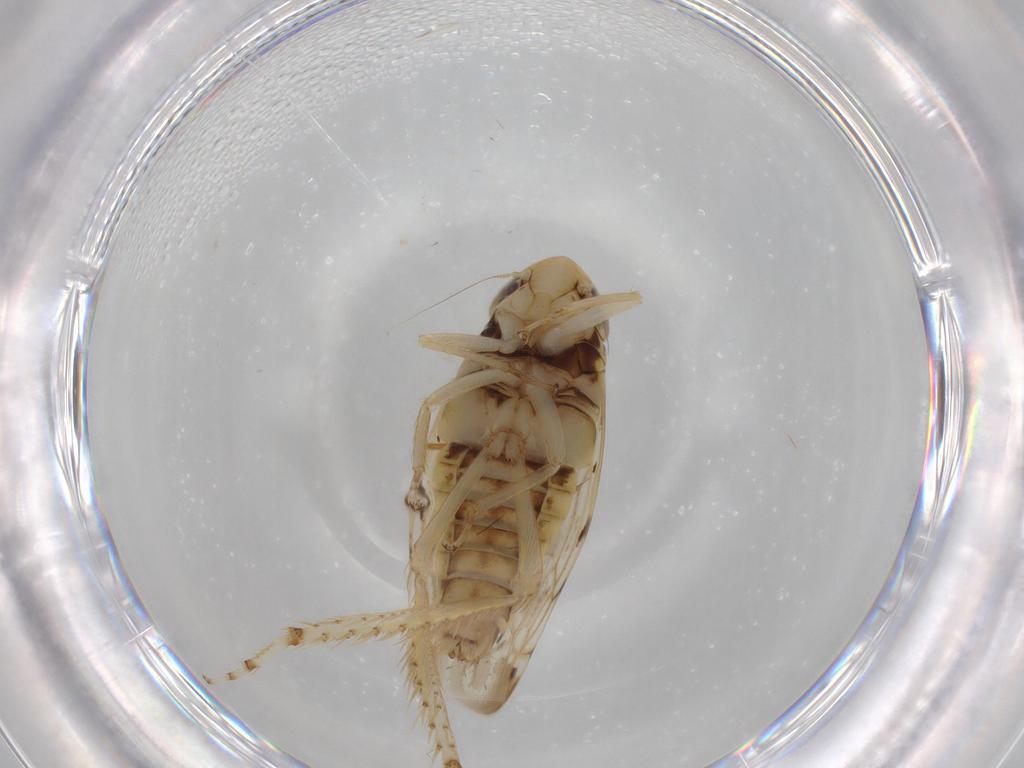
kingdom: Animalia
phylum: Arthropoda
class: Insecta
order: Hemiptera
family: Cicadellidae
